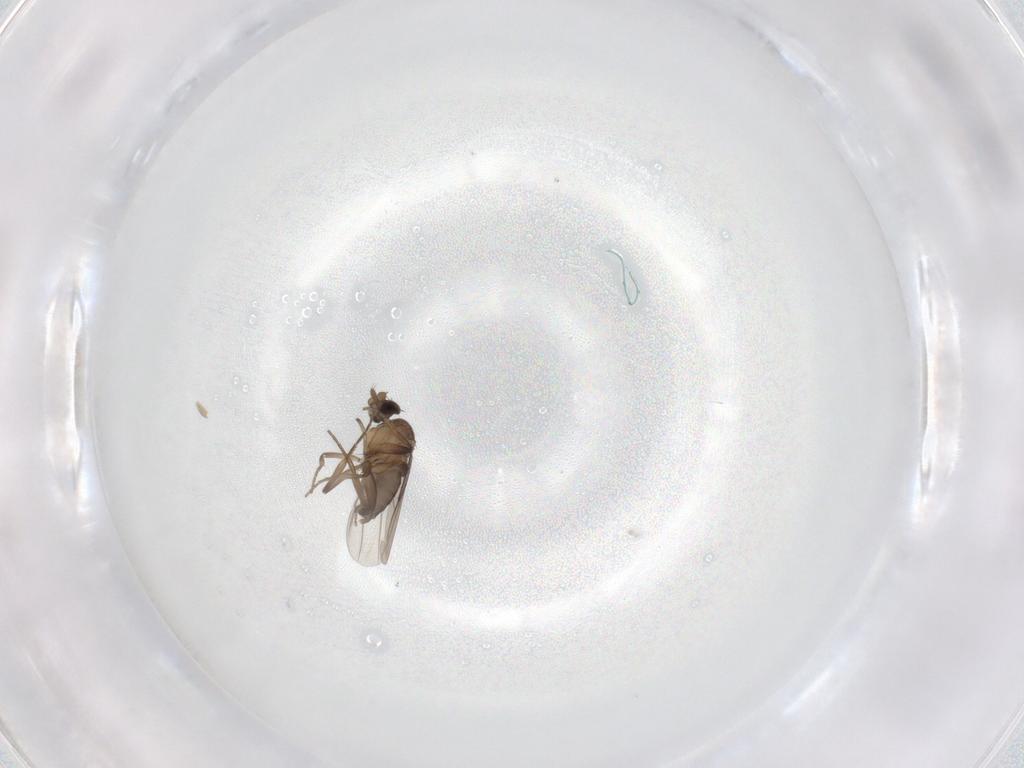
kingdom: Animalia
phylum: Arthropoda
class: Insecta
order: Diptera
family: Phoridae
